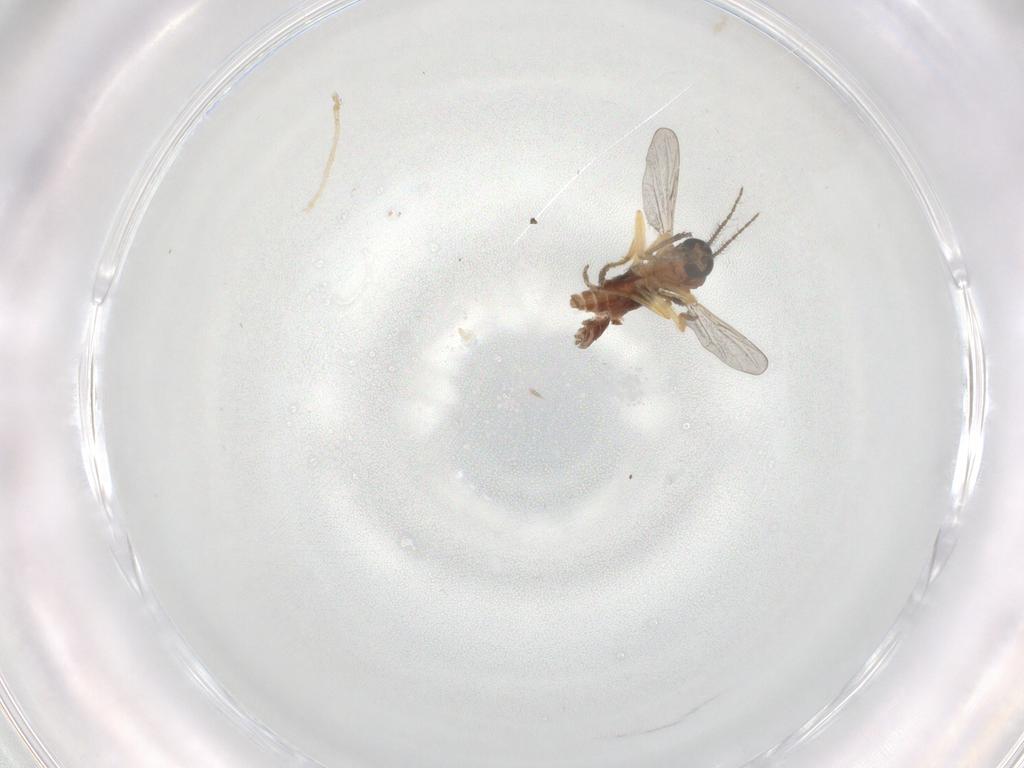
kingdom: Animalia
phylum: Arthropoda
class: Insecta
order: Diptera
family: Ceratopogonidae
